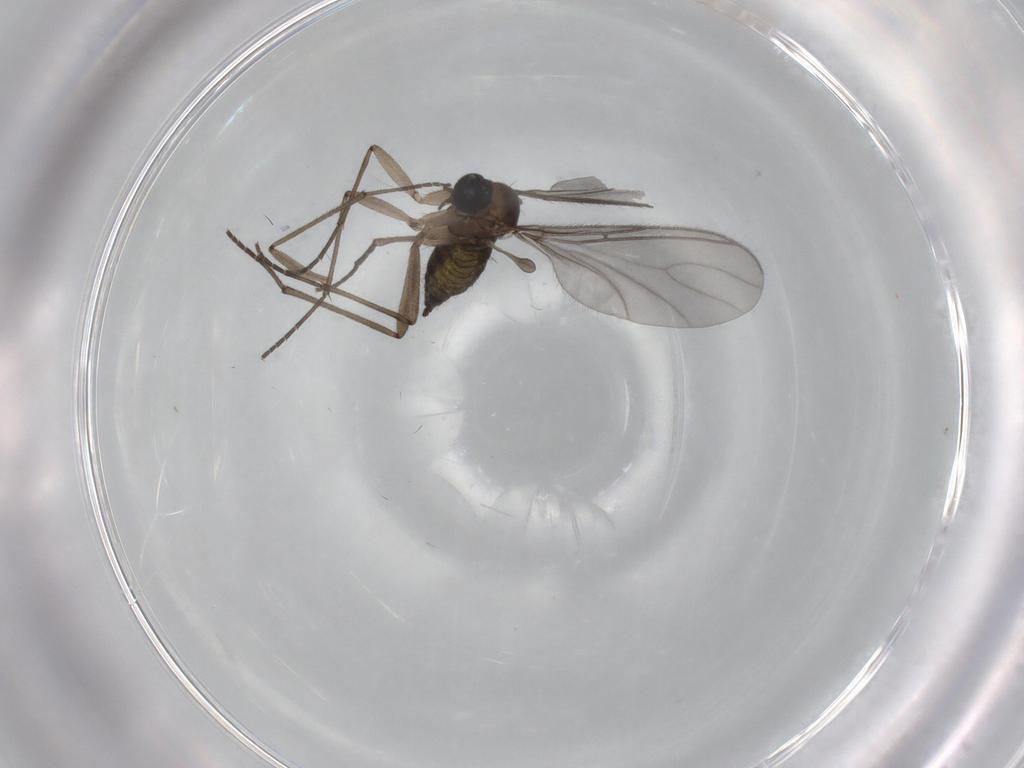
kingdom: Animalia
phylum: Arthropoda
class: Insecta
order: Diptera
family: Sciaridae
